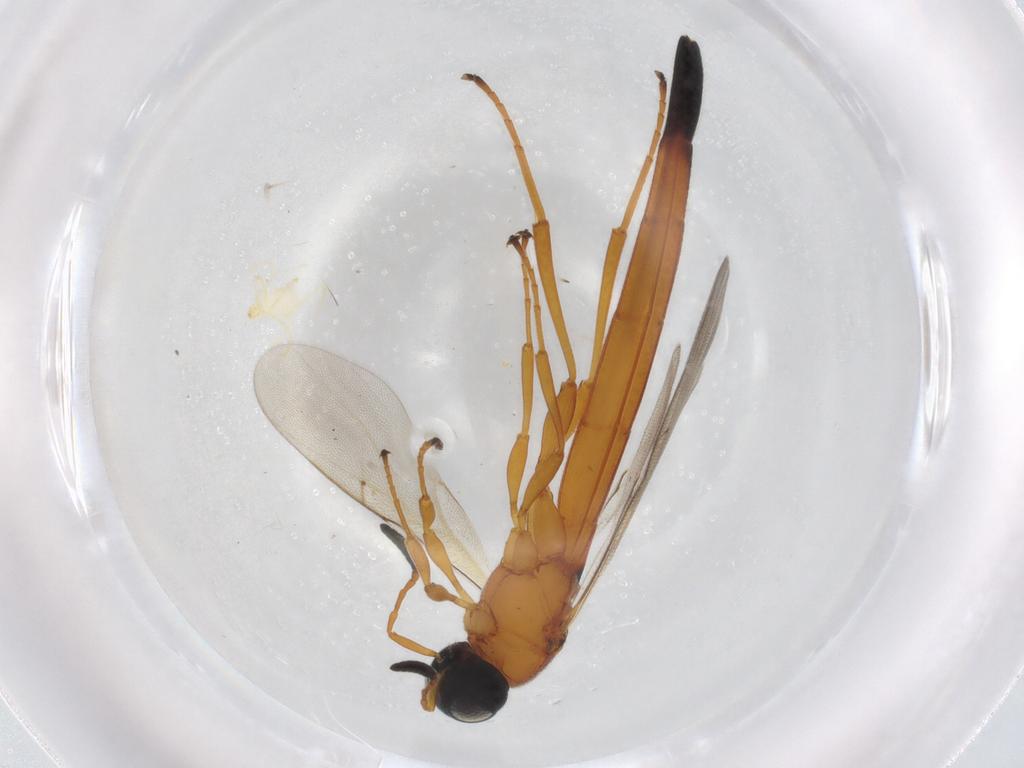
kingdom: Animalia
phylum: Arthropoda
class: Insecta
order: Hymenoptera
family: Scelionidae
